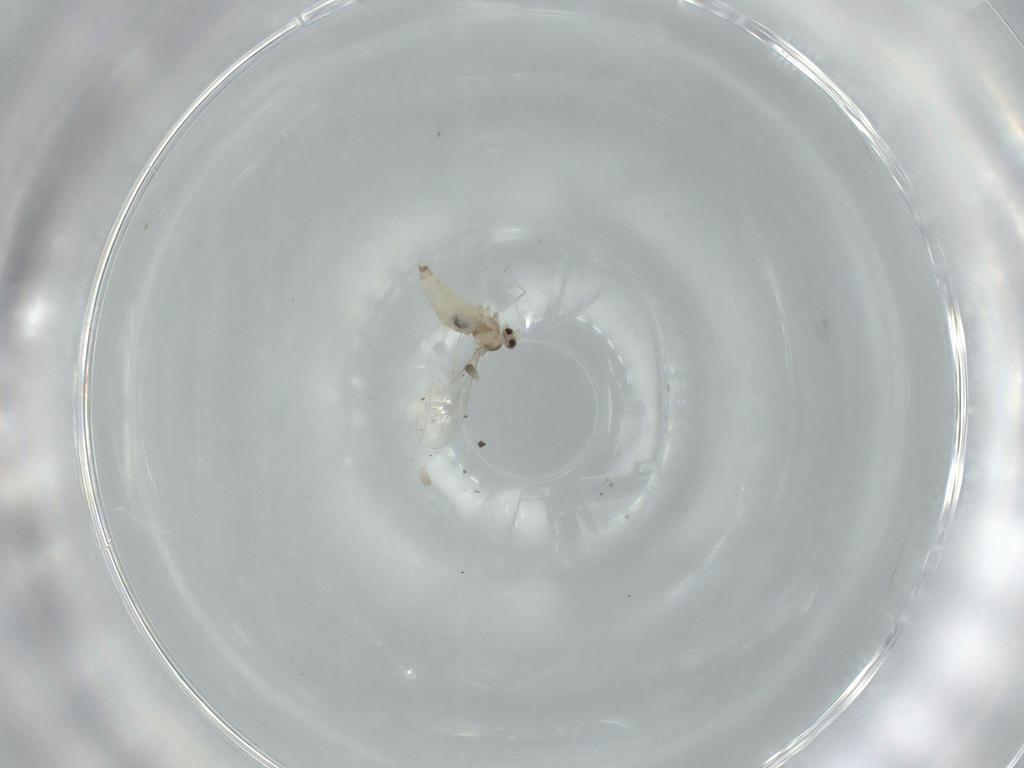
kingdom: Animalia
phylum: Arthropoda
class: Insecta
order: Diptera
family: Cecidomyiidae
